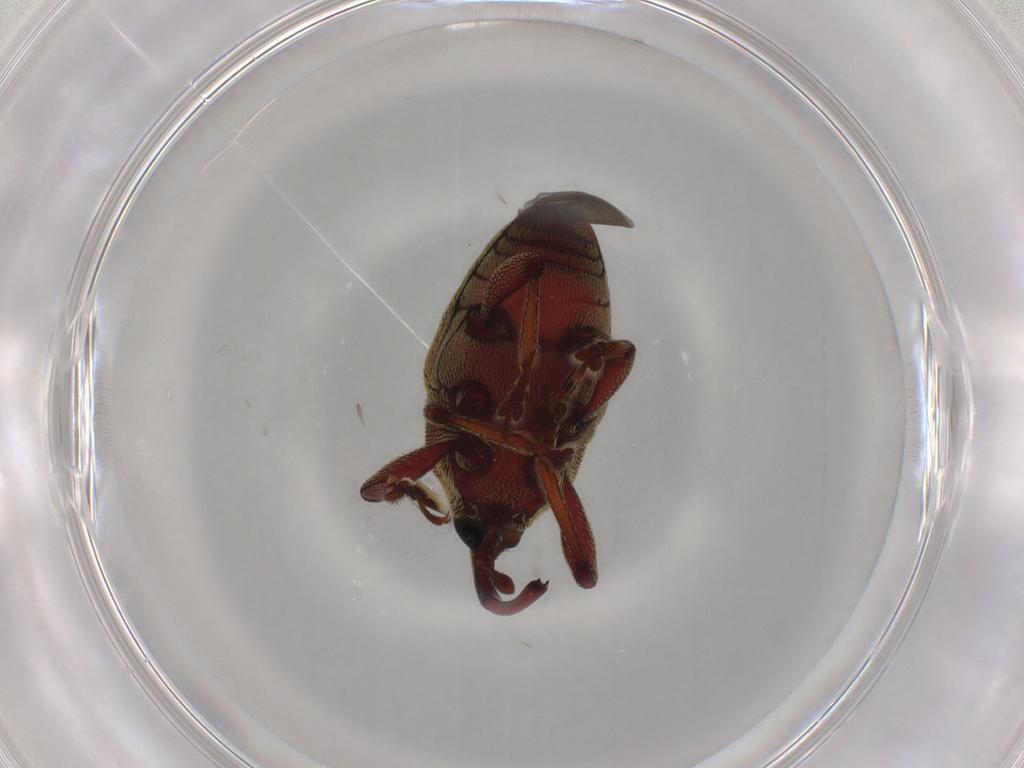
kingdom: Animalia
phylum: Arthropoda
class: Insecta
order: Coleoptera
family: Curculionidae
